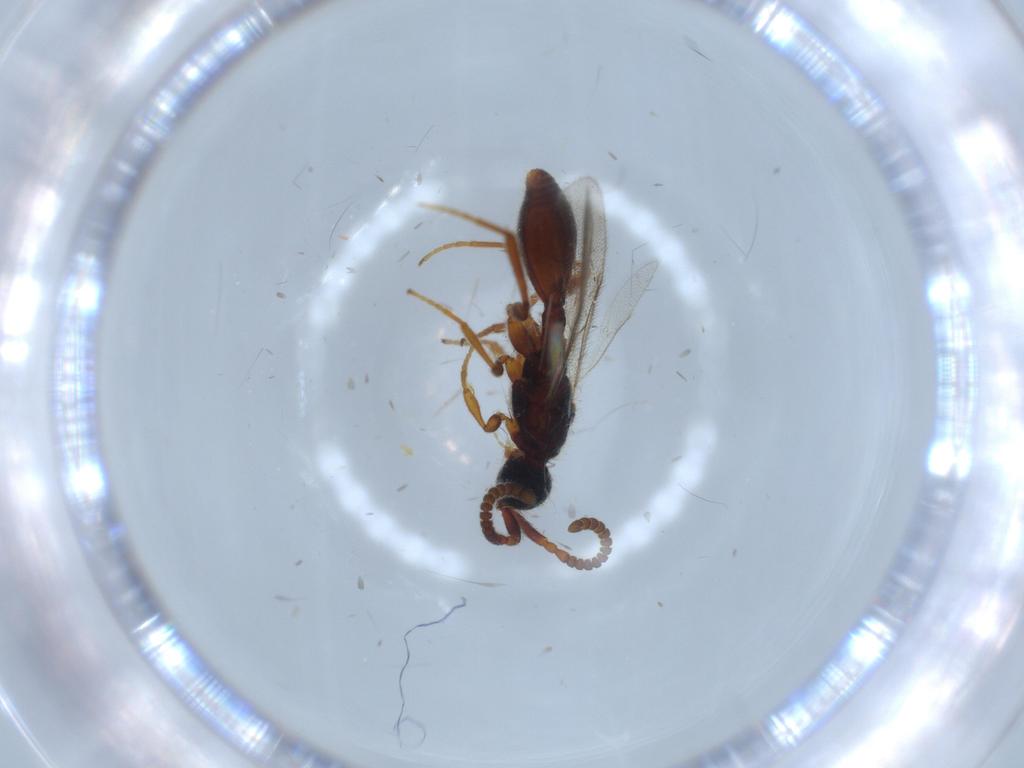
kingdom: Animalia
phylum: Arthropoda
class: Insecta
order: Hymenoptera
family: Diapriidae
